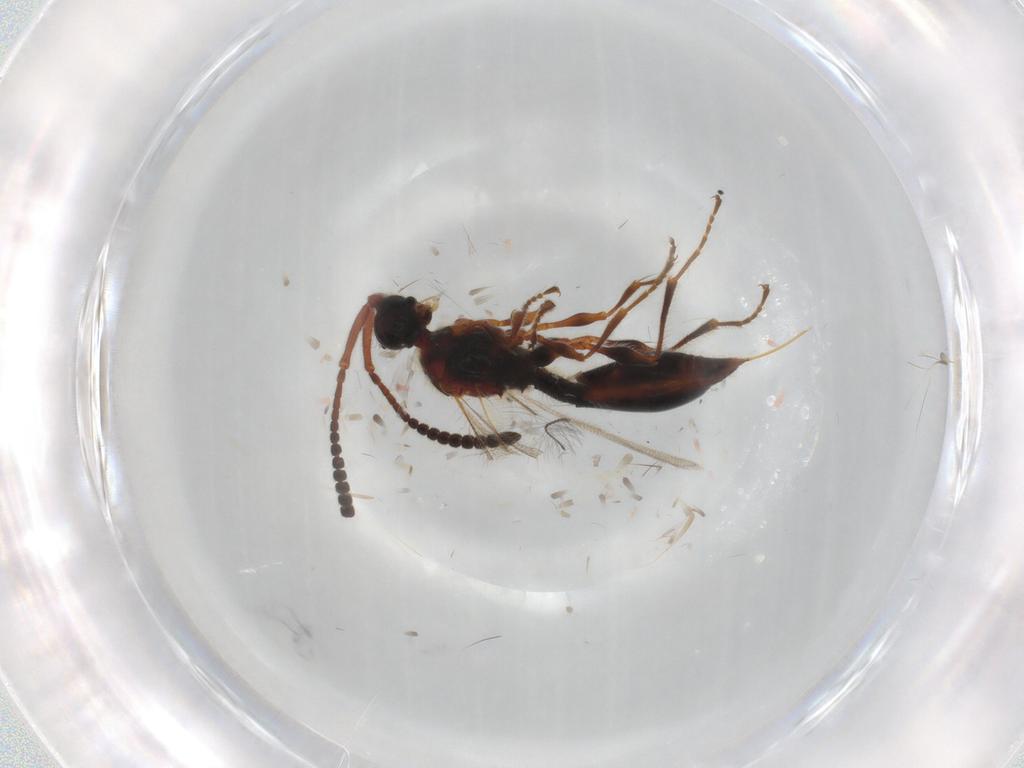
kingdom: Animalia
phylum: Arthropoda
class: Insecta
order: Hymenoptera
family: Diapriidae
